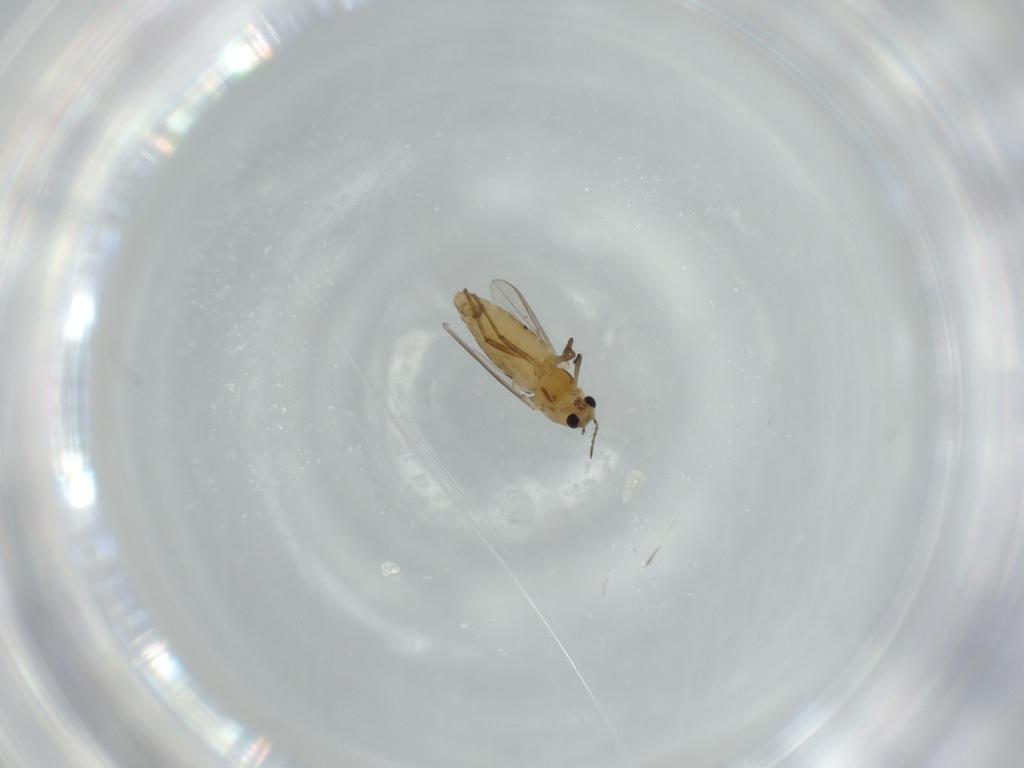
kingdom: Animalia
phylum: Arthropoda
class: Insecta
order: Diptera
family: Chironomidae
